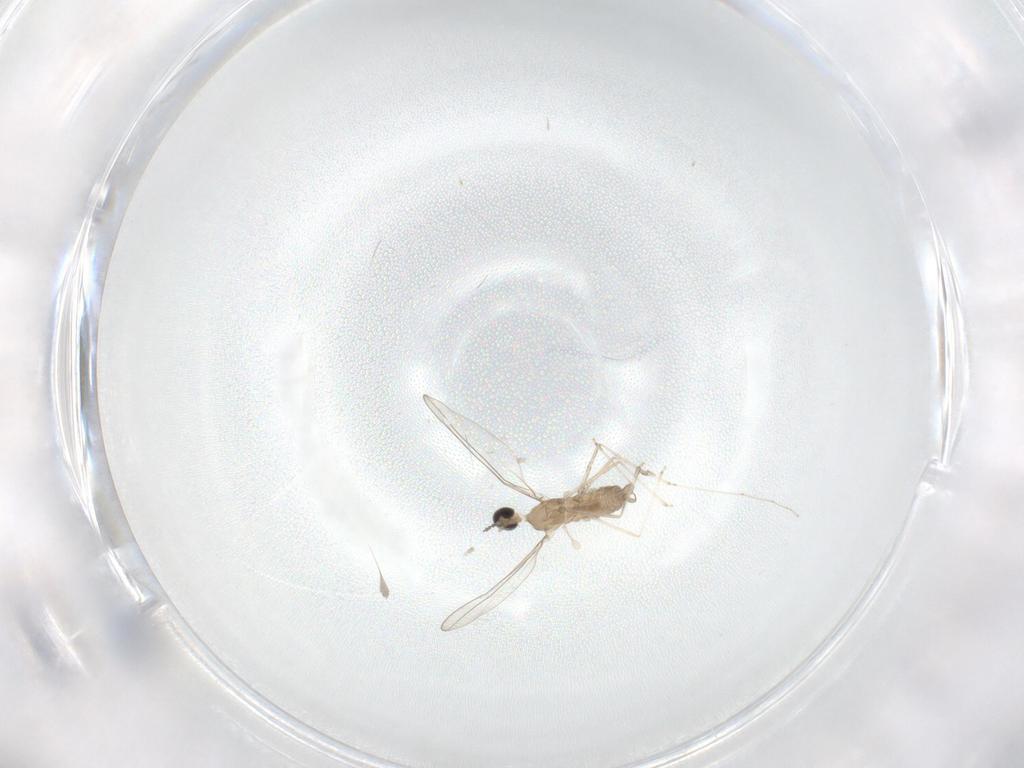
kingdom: Animalia
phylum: Arthropoda
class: Insecta
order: Diptera
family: Cecidomyiidae
